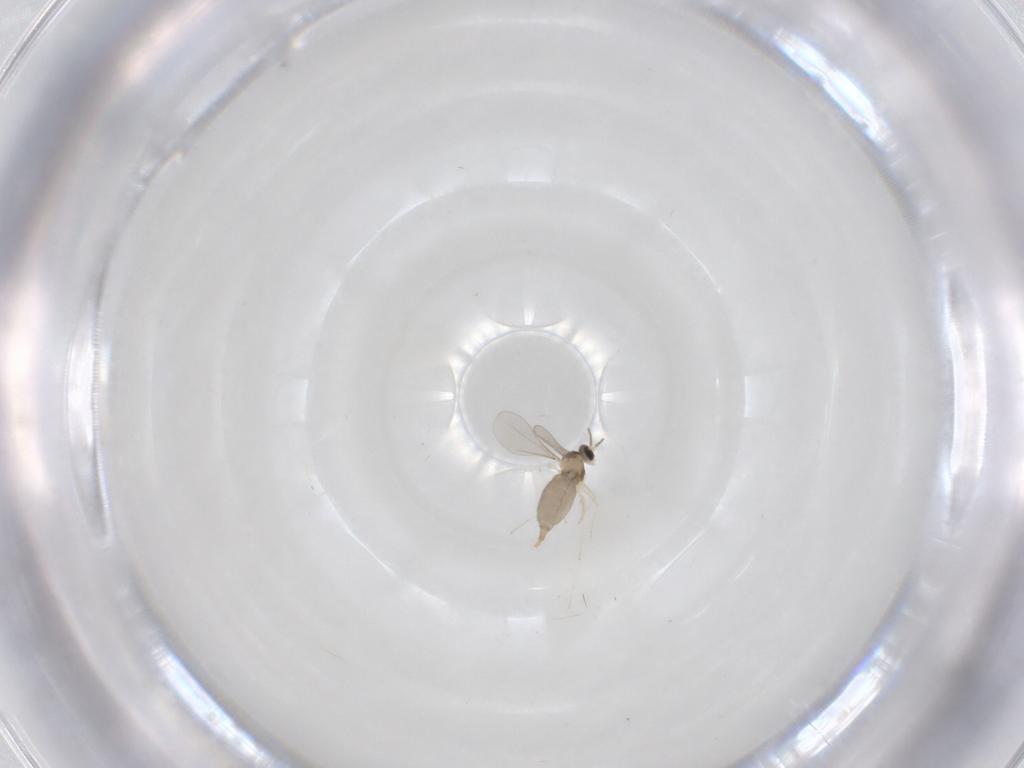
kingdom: Animalia
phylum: Arthropoda
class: Insecta
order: Diptera
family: Cecidomyiidae
